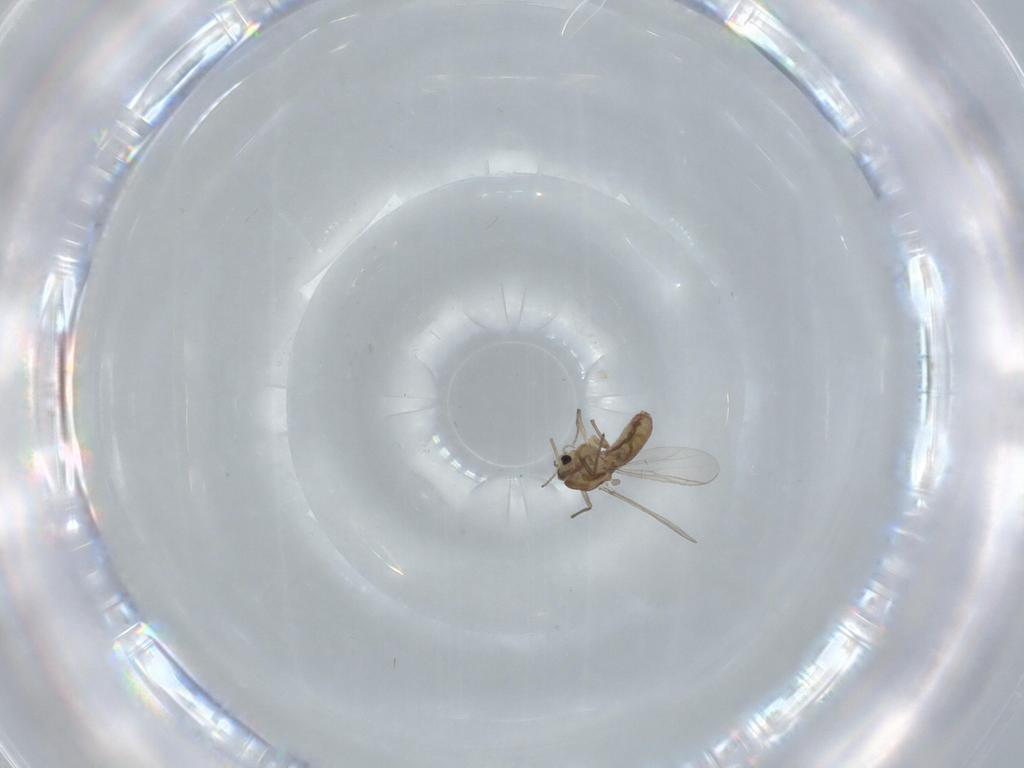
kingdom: Animalia
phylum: Arthropoda
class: Insecta
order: Diptera
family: Chironomidae
